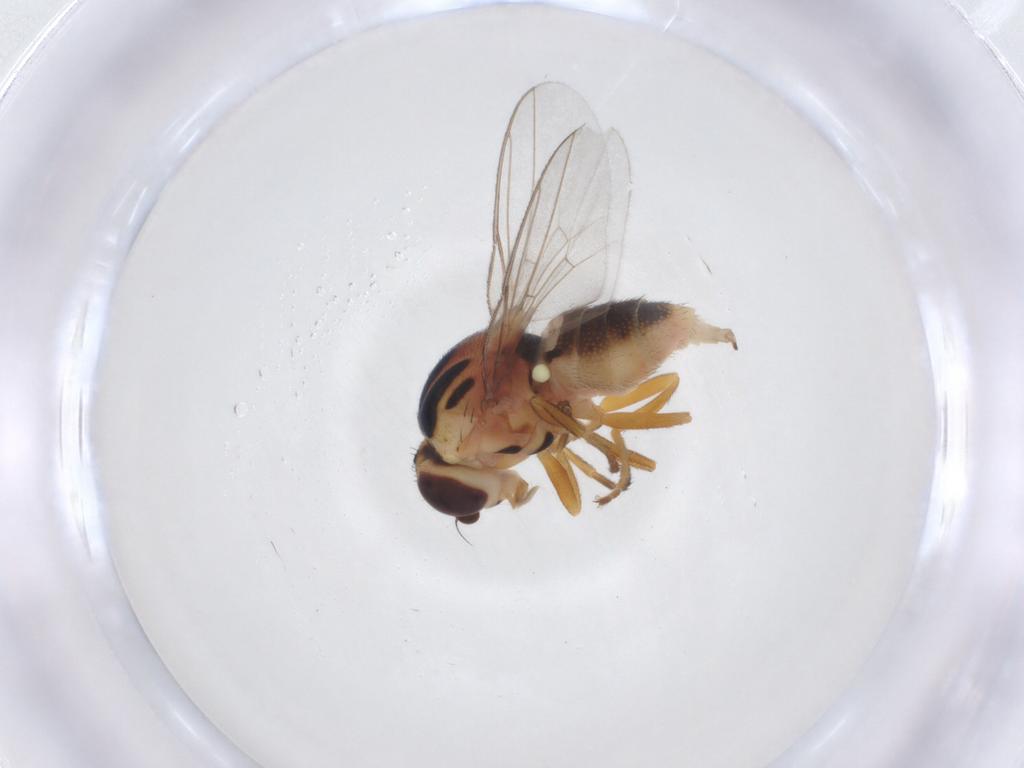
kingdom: Animalia
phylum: Arthropoda
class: Insecta
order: Diptera
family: Chloropidae
